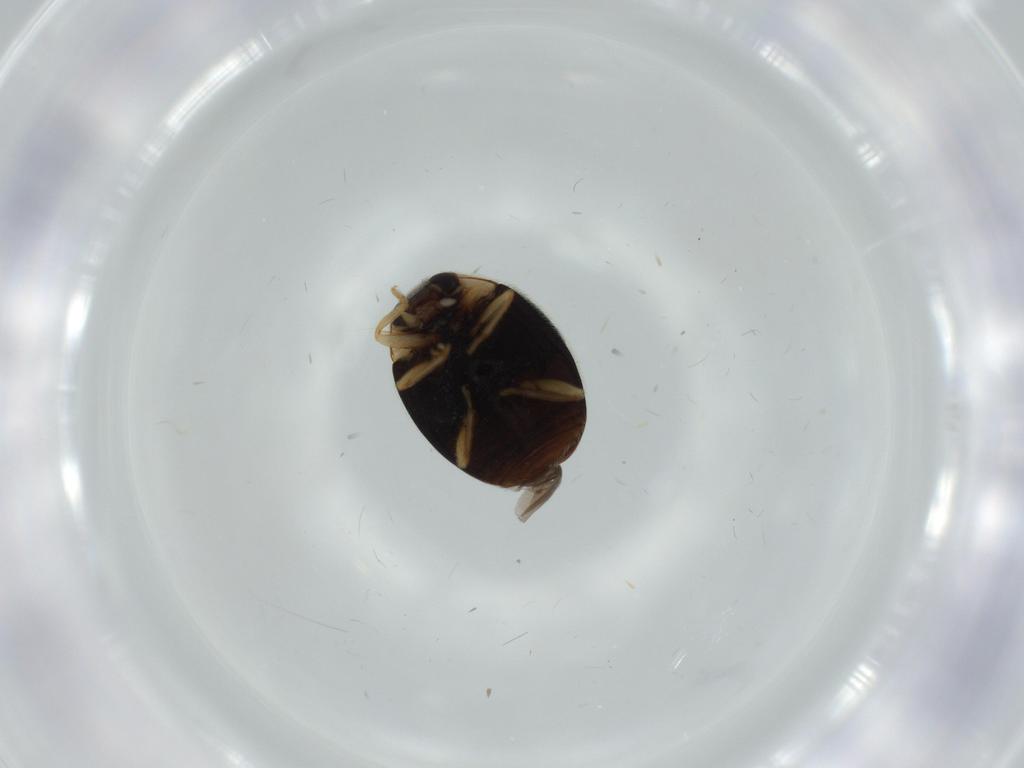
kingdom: Animalia
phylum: Arthropoda
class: Insecta
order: Coleoptera
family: Coccinellidae
